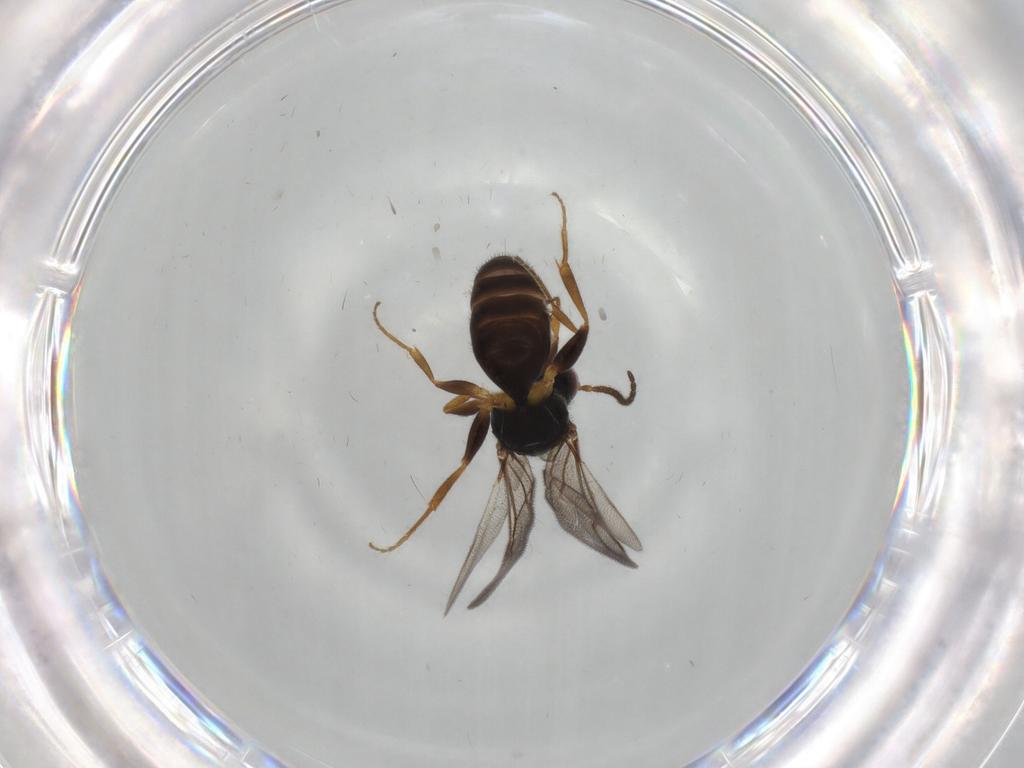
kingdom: Animalia
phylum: Arthropoda
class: Insecta
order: Hymenoptera
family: Bethylidae
